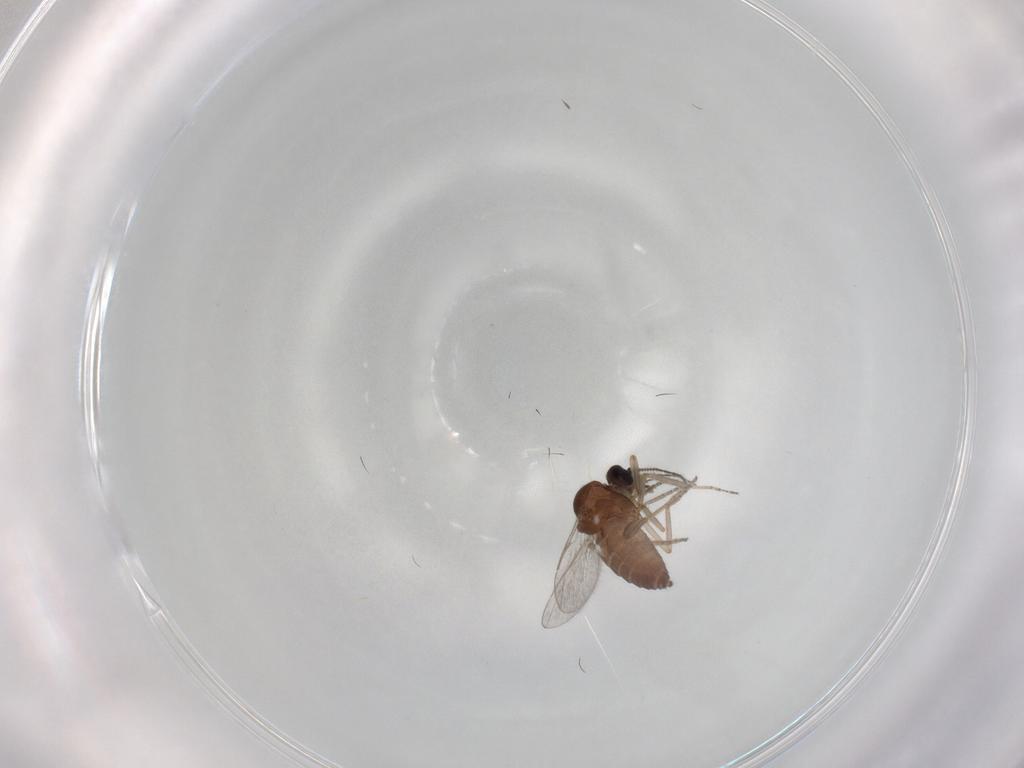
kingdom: Animalia
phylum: Arthropoda
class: Insecta
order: Diptera
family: Ceratopogonidae
